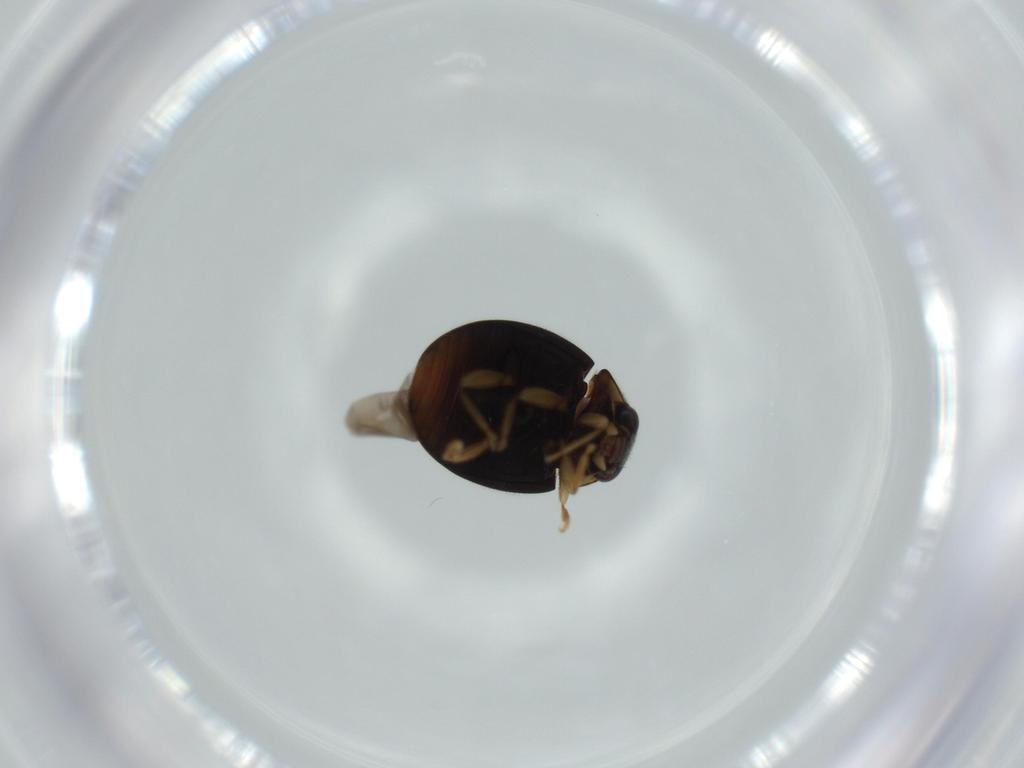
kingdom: Animalia
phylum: Arthropoda
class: Insecta
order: Coleoptera
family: Coccinellidae
